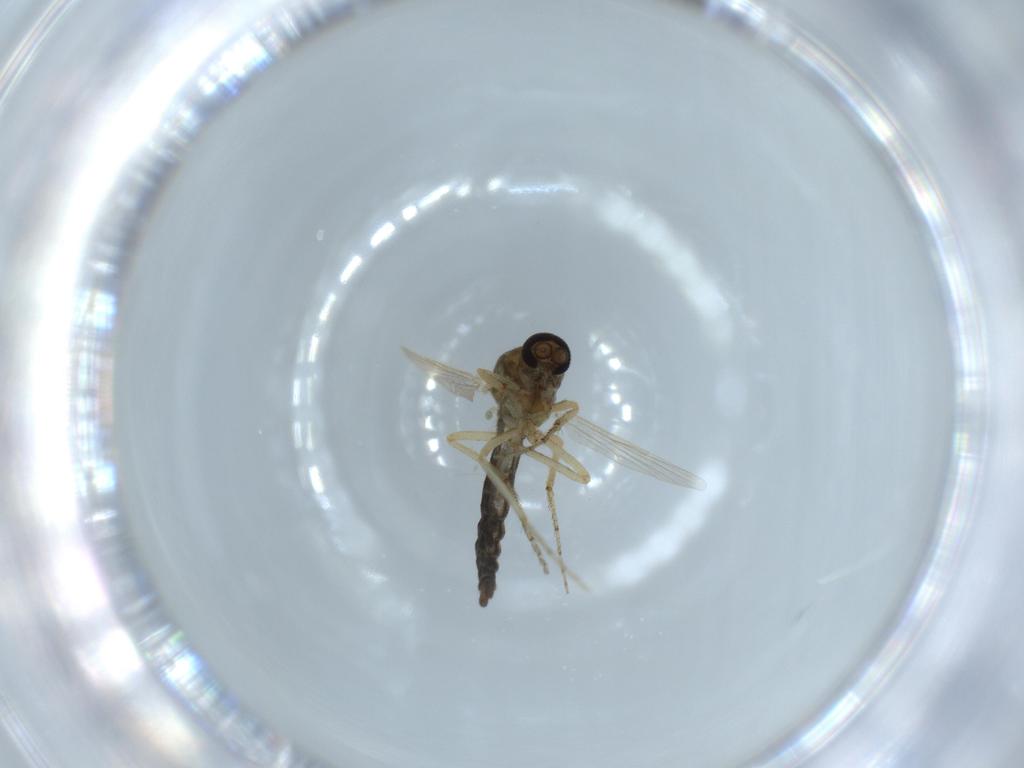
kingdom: Animalia
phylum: Arthropoda
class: Insecta
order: Diptera
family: Ceratopogonidae
